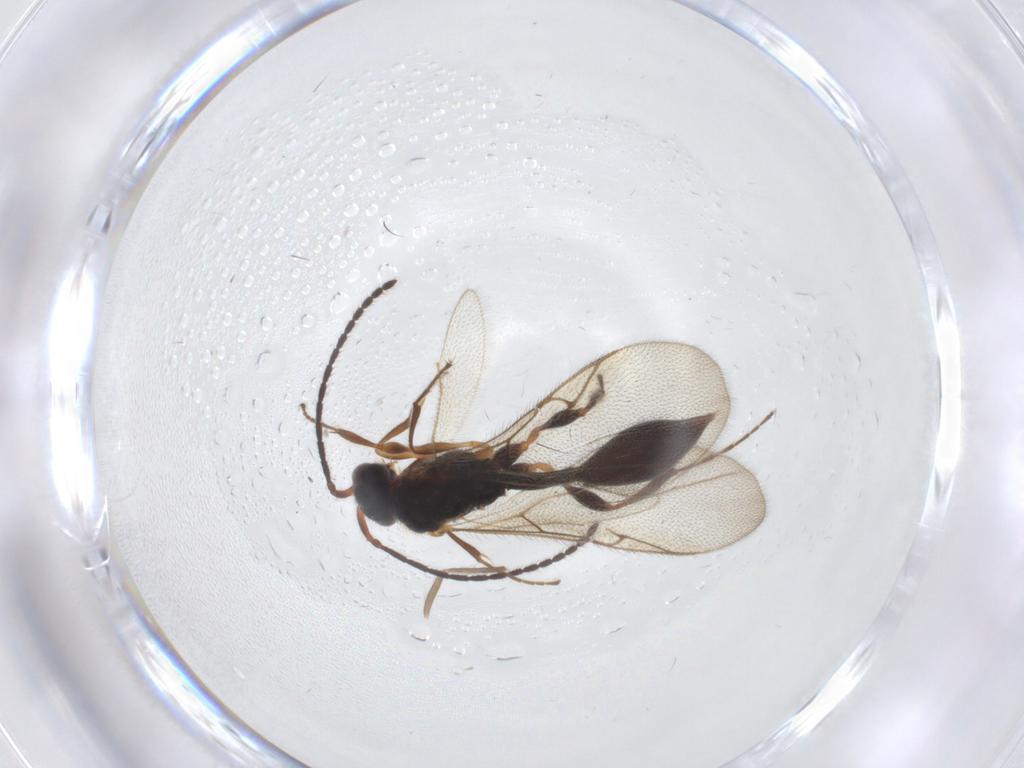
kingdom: Animalia
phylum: Arthropoda
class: Insecta
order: Hymenoptera
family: Diapriidae
